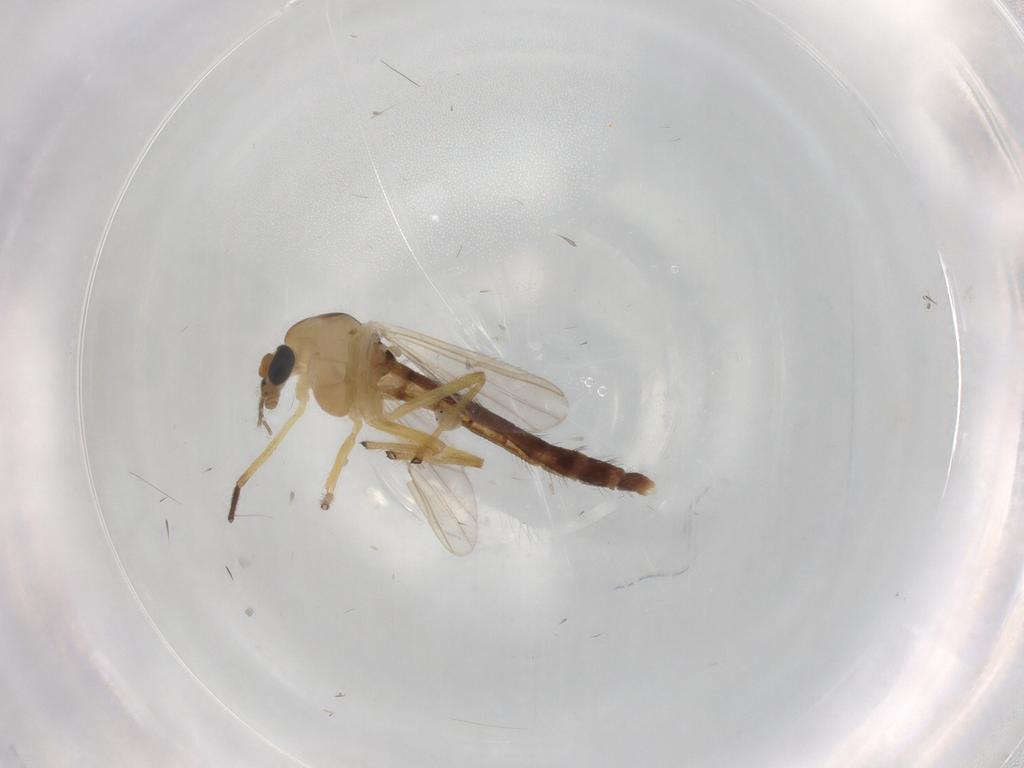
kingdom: Animalia
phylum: Arthropoda
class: Insecta
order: Diptera
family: Chironomidae
